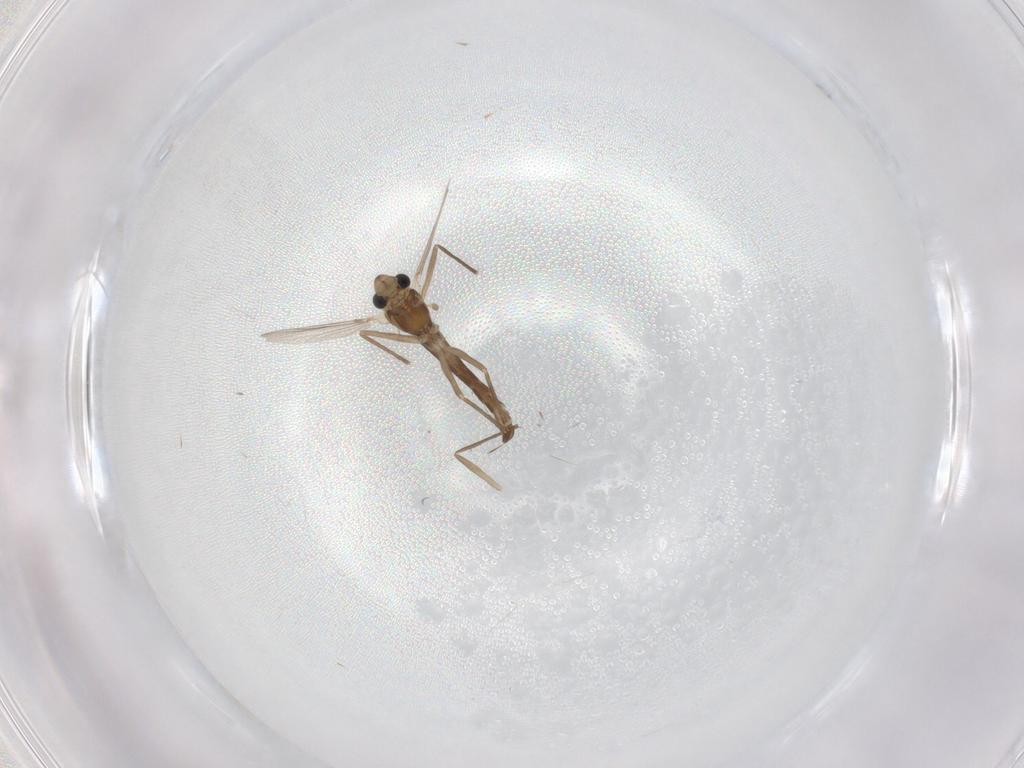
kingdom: Animalia
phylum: Arthropoda
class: Insecta
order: Diptera
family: Chironomidae
